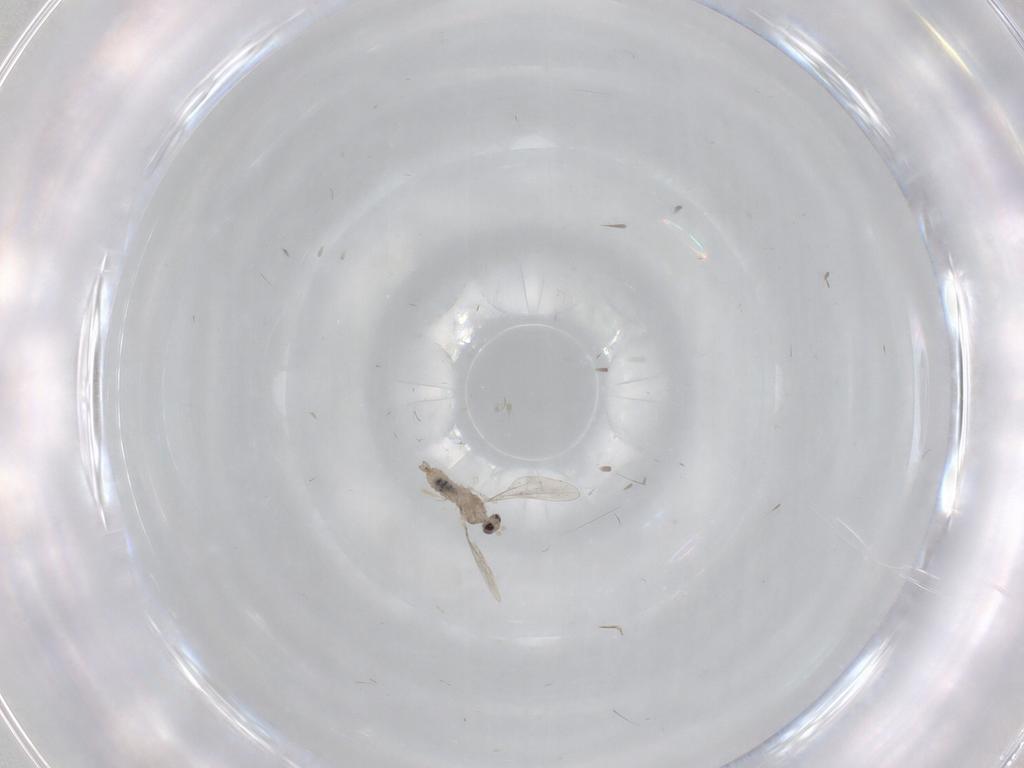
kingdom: Animalia
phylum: Arthropoda
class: Insecta
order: Diptera
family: Cecidomyiidae
